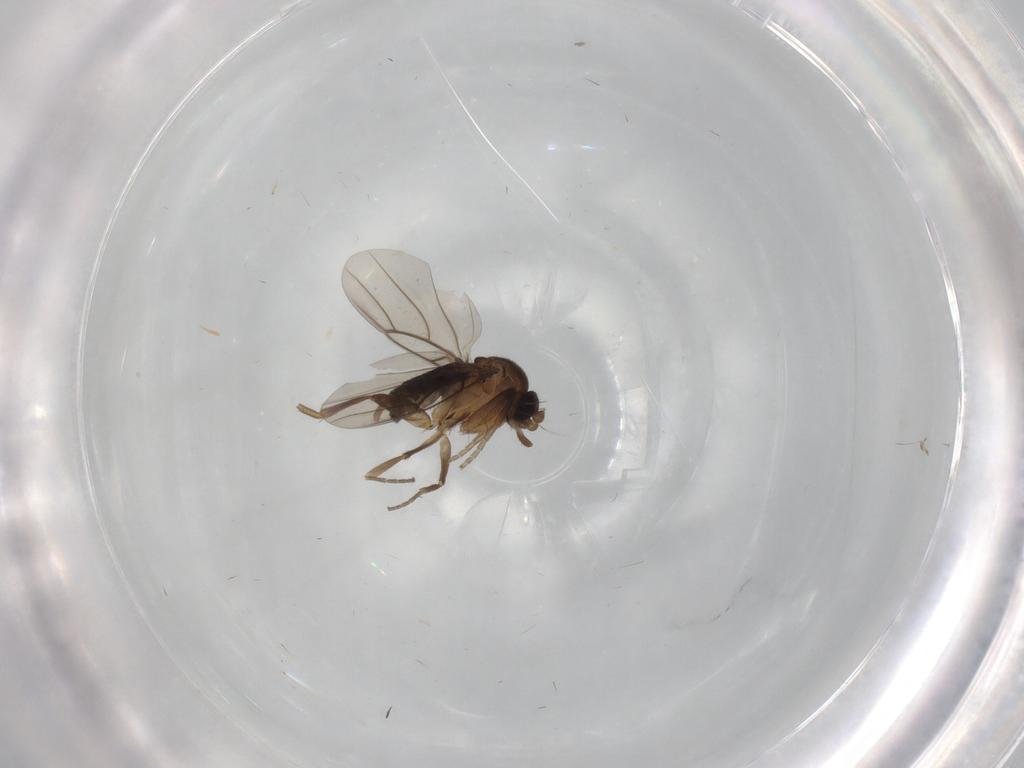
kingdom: Animalia
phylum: Arthropoda
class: Insecta
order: Diptera
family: Phoridae
